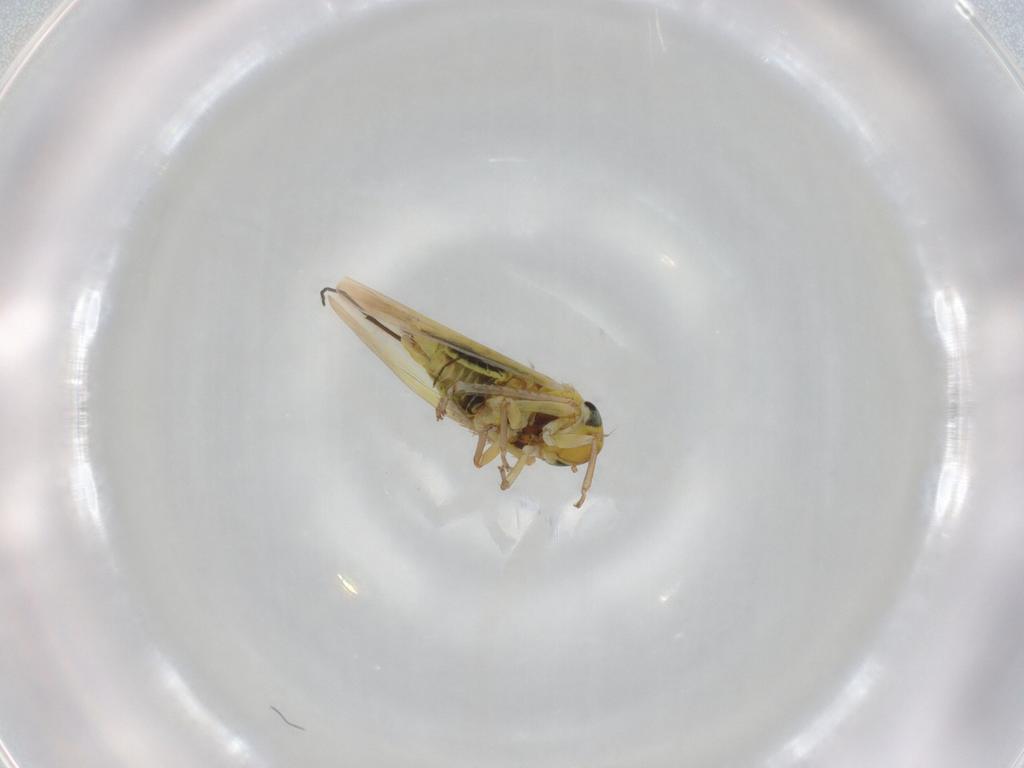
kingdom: Animalia
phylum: Arthropoda
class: Insecta
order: Hemiptera
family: Cicadellidae
